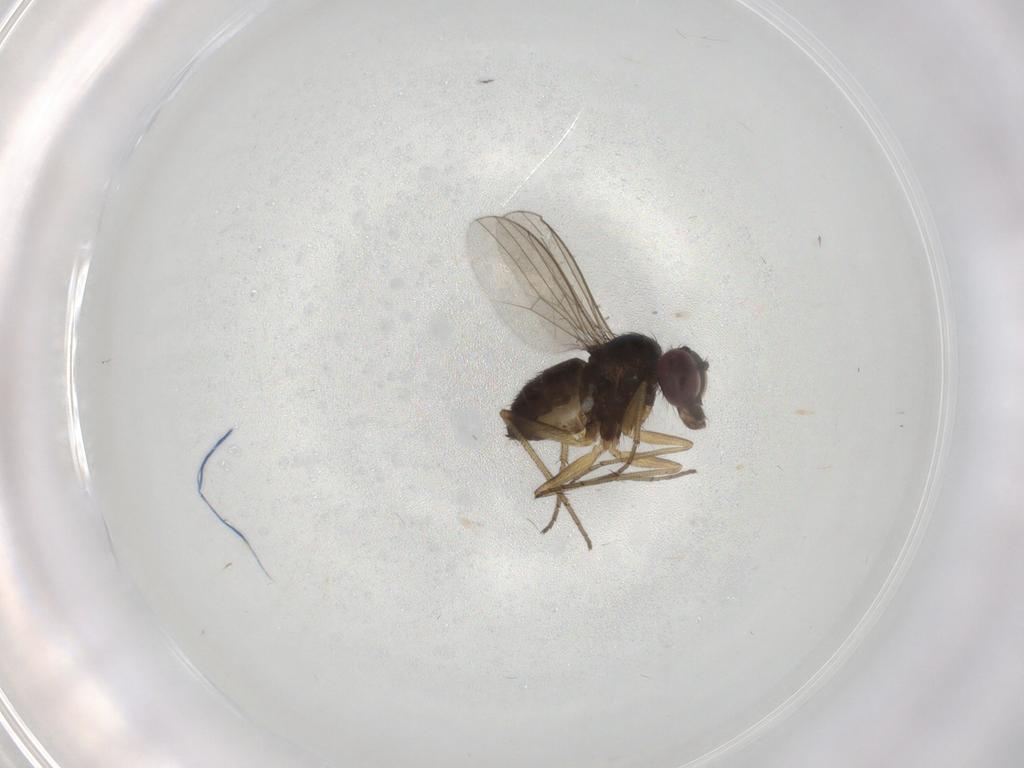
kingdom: Animalia
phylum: Arthropoda
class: Insecta
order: Diptera
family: Dolichopodidae
